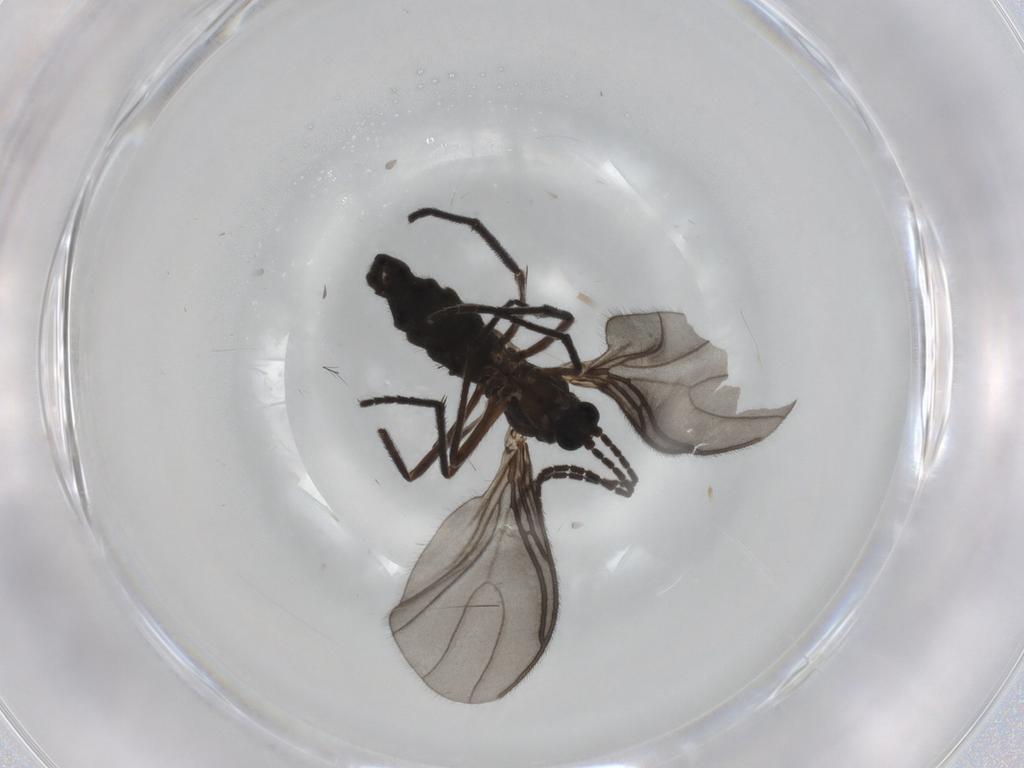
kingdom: Animalia
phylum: Arthropoda
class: Insecta
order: Diptera
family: Sciaridae
